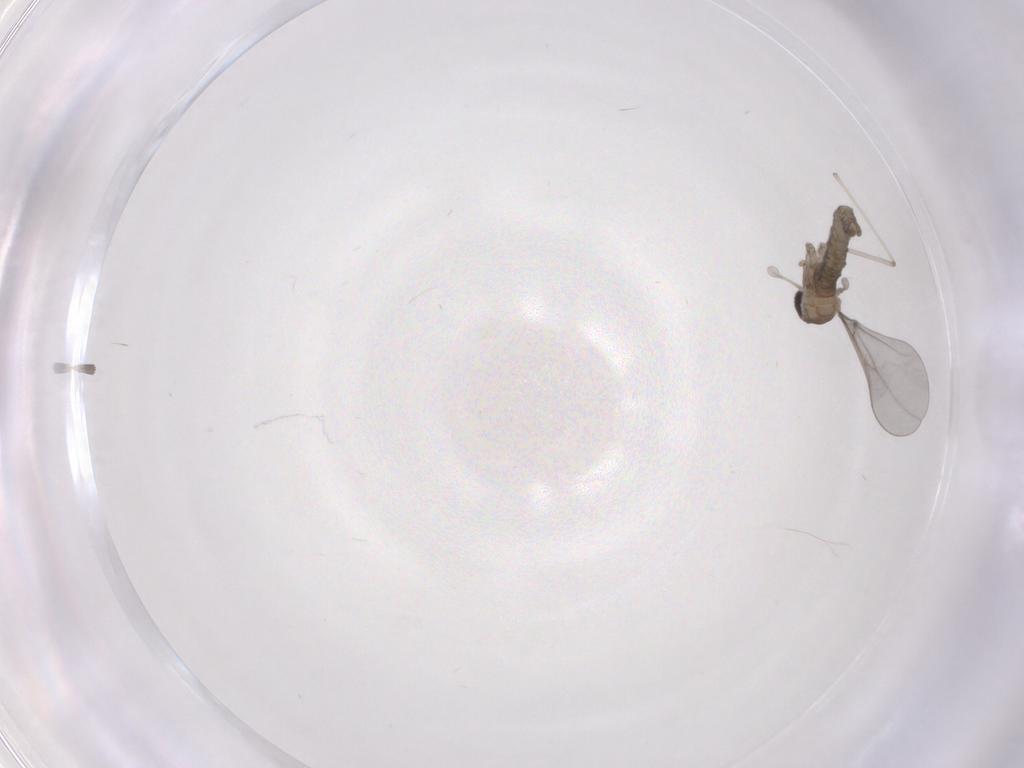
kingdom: Animalia
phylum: Arthropoda
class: Insecta
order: Diptera
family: Cecidomyiidae
